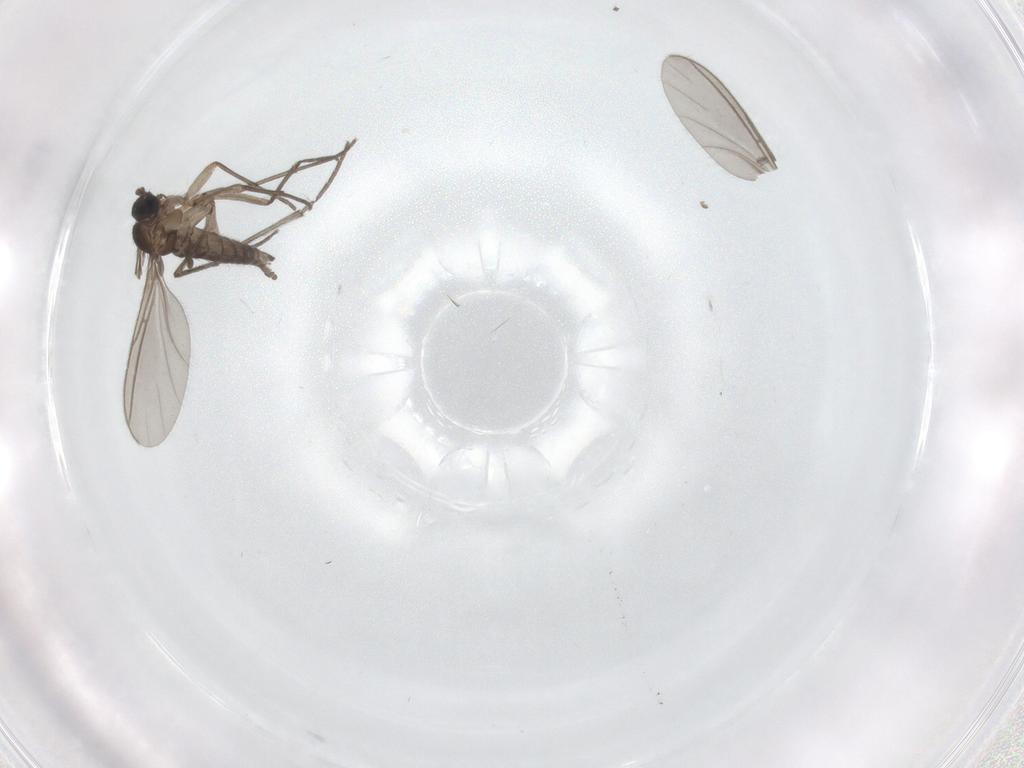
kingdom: Animalia
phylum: Arthropoda
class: Insecta
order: Diptera
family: Sciaridae
